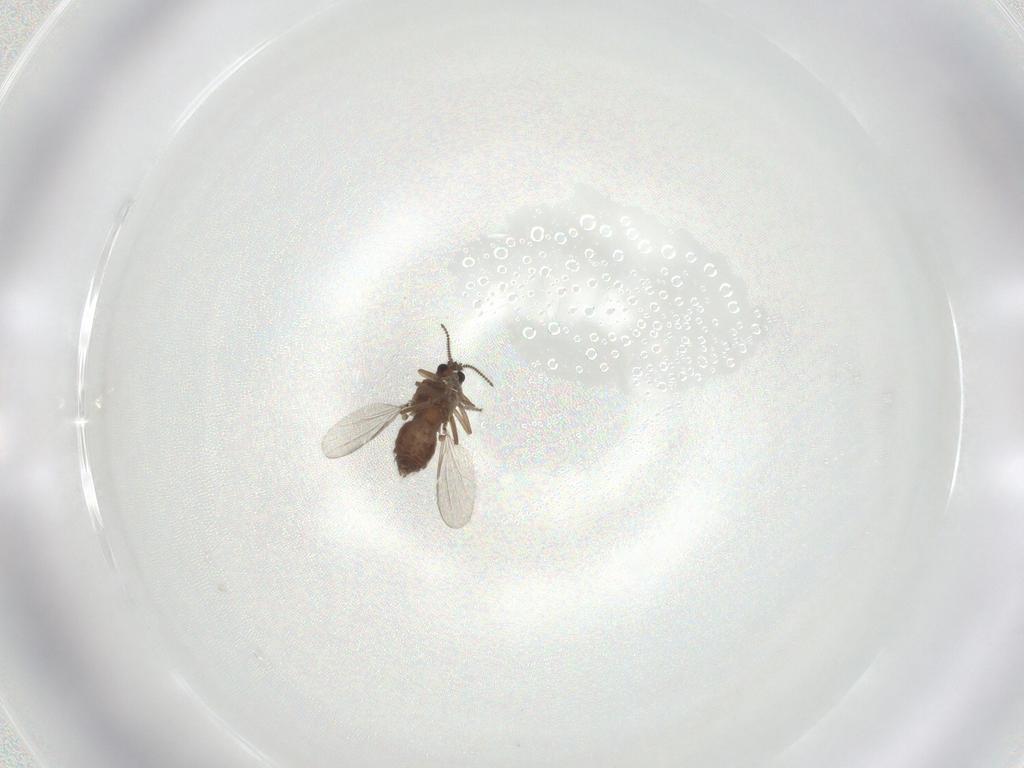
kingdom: Animalia
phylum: Arthropoda
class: Insecta
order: Diptera
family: Ceratopogonidae
